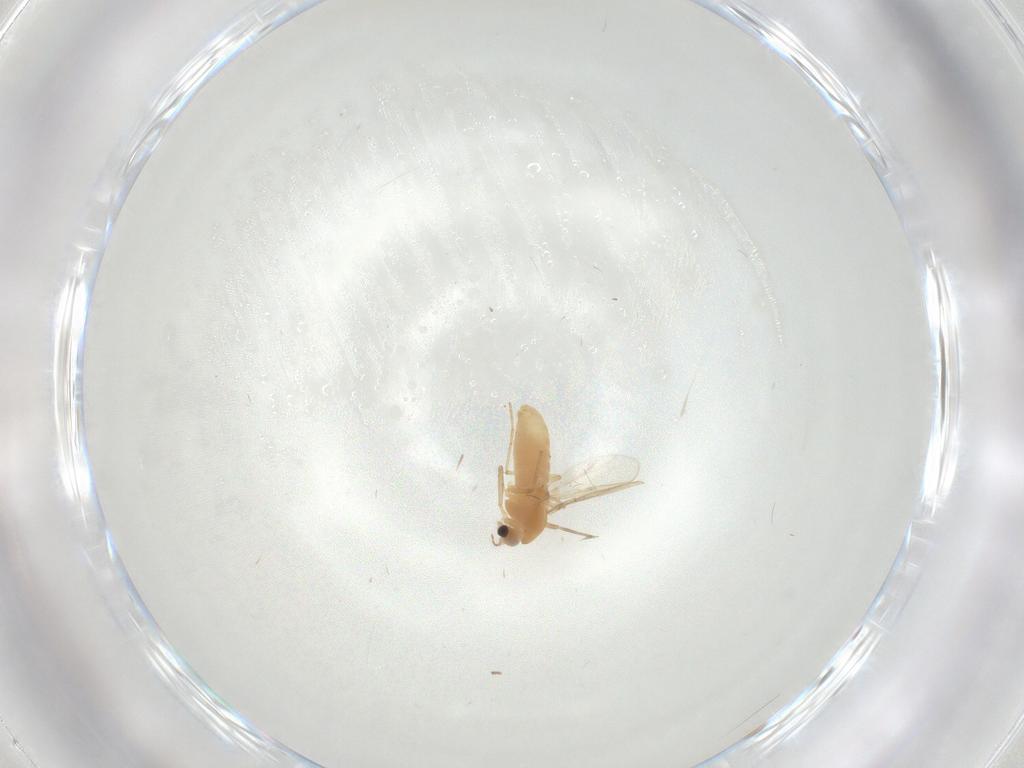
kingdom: Animalia
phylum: Arthropoda
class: Insecta
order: Diptera
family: Chironomidae
